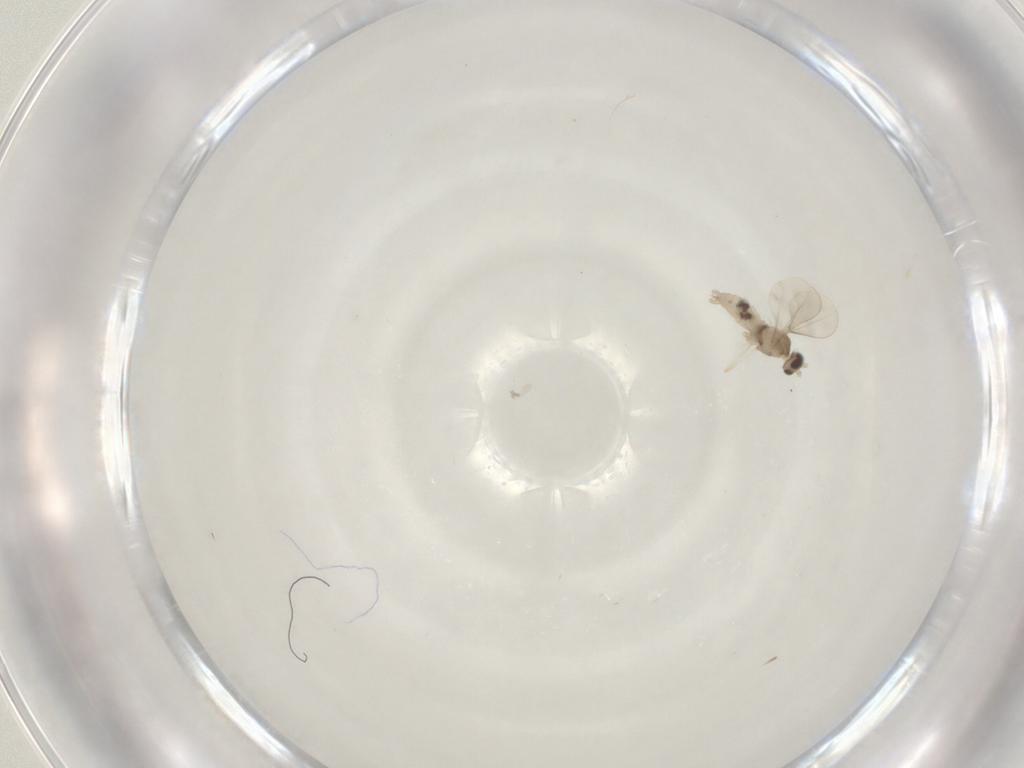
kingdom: Animalia
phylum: Arthropoda
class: Insecta
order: Diptera
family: Cecidomyiidae
